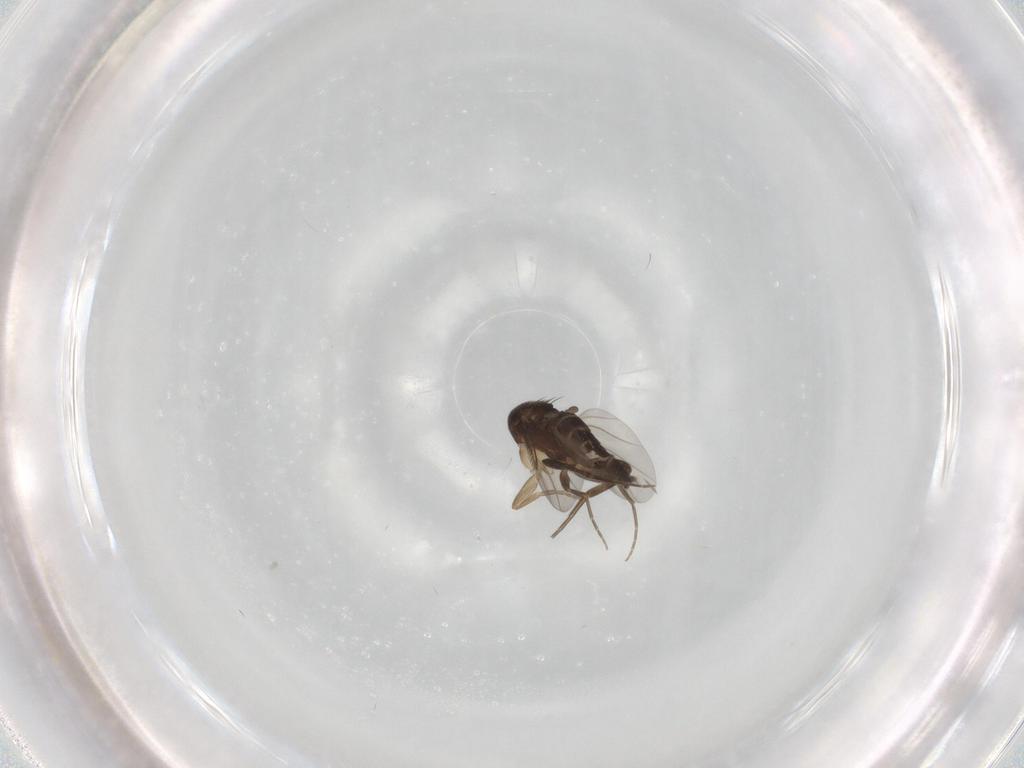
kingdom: Animalia
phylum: Arthropoda
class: Insecta
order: Diptera
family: Phoridae
